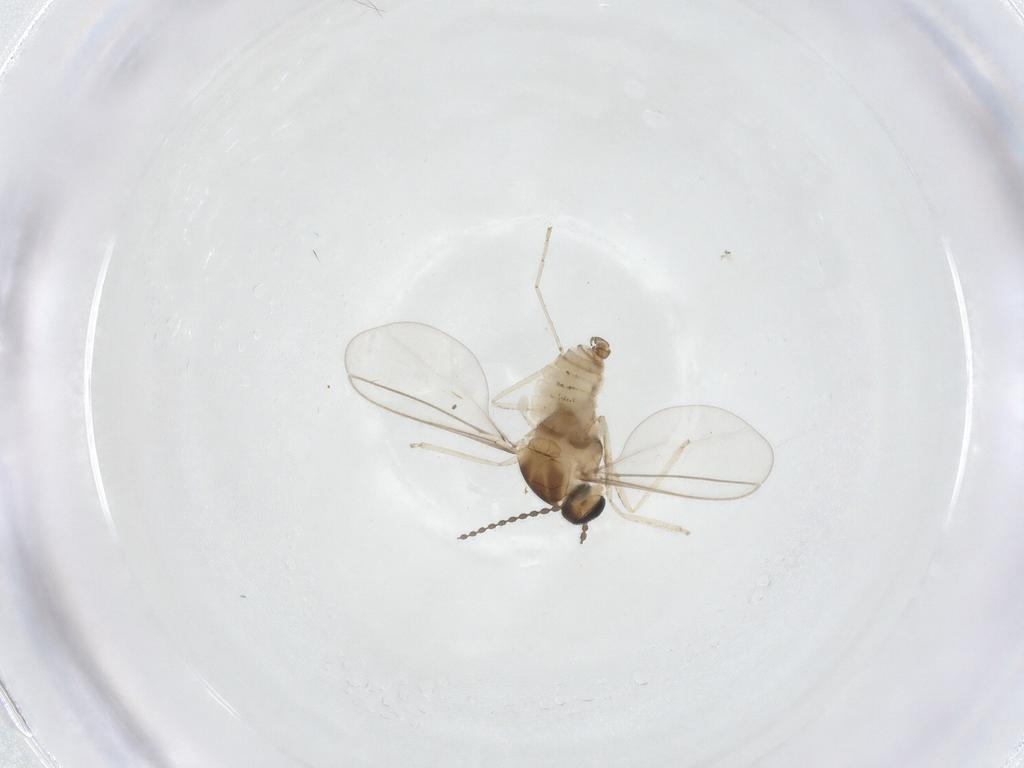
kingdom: Animalia
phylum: Arthropoda
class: Insecta
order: Diptera
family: Cecidomyiidae
